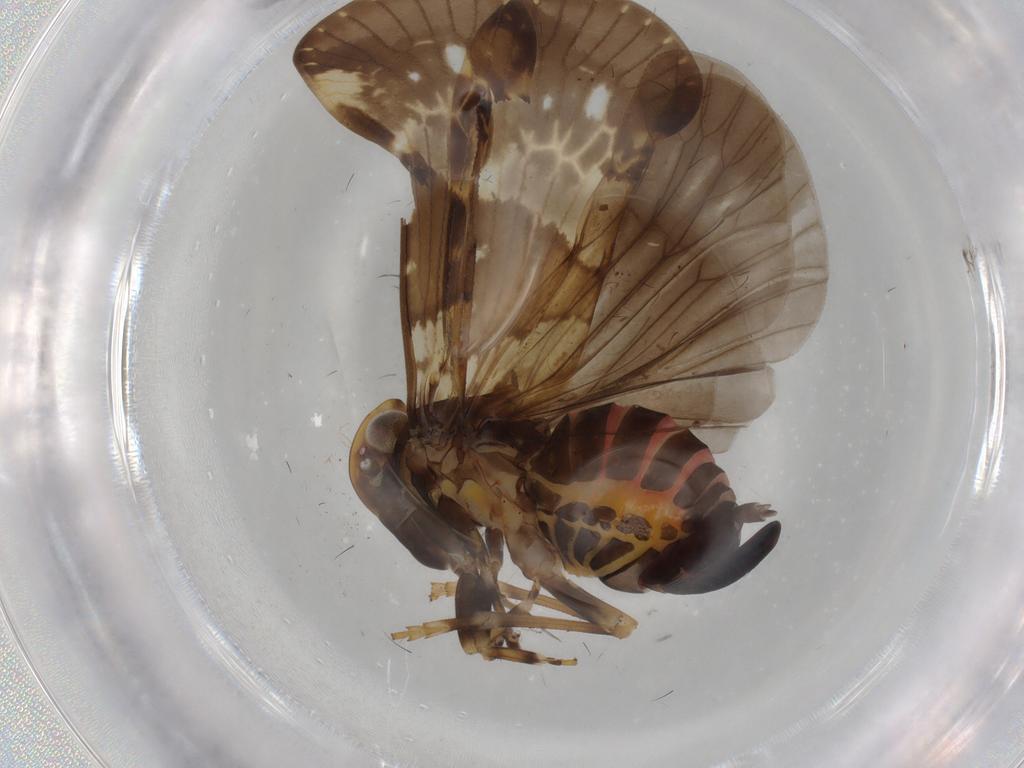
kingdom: Animalia
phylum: Arthropoda
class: Insecta
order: Hemiptera
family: Cixiidae
